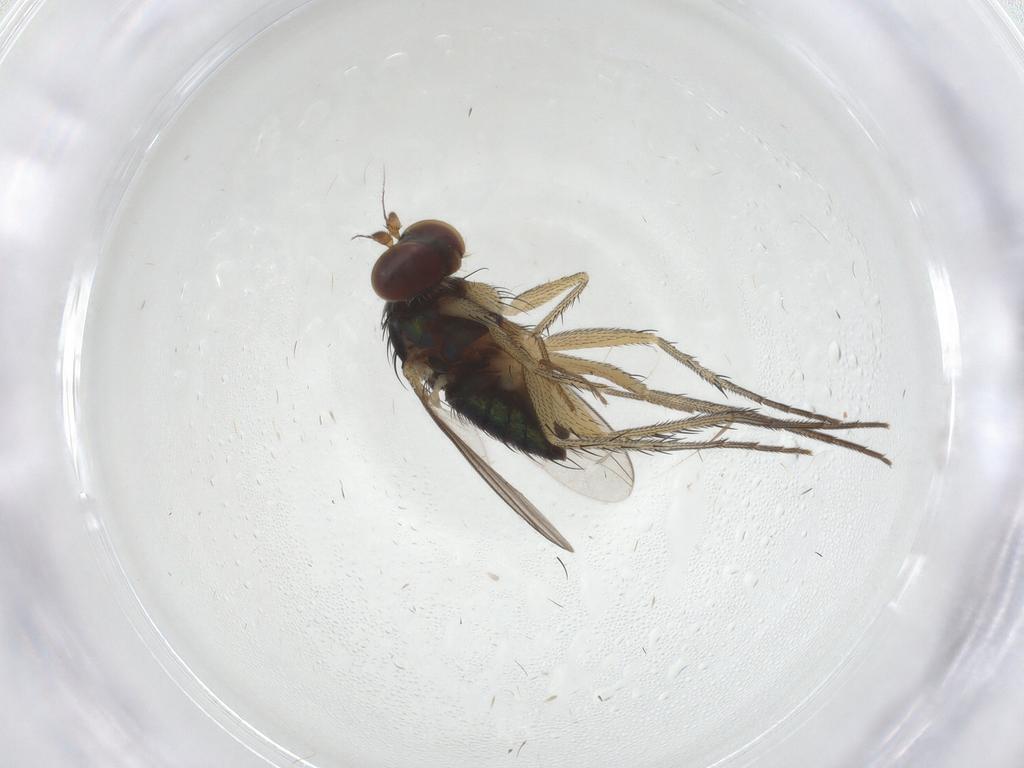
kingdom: Animalia
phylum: Arthropoda
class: Insecta
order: Diptera
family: Dolichopodidae
